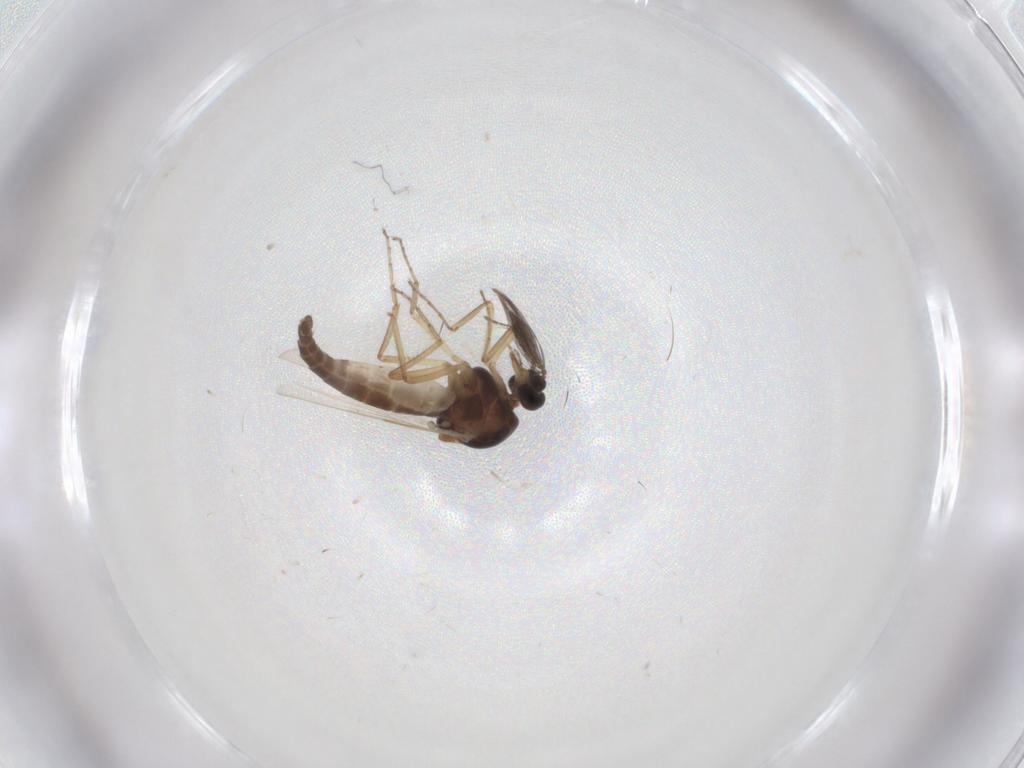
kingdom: Animalia
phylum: Arthropoda
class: Insecta
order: Diptera
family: Ceratopogonidae
